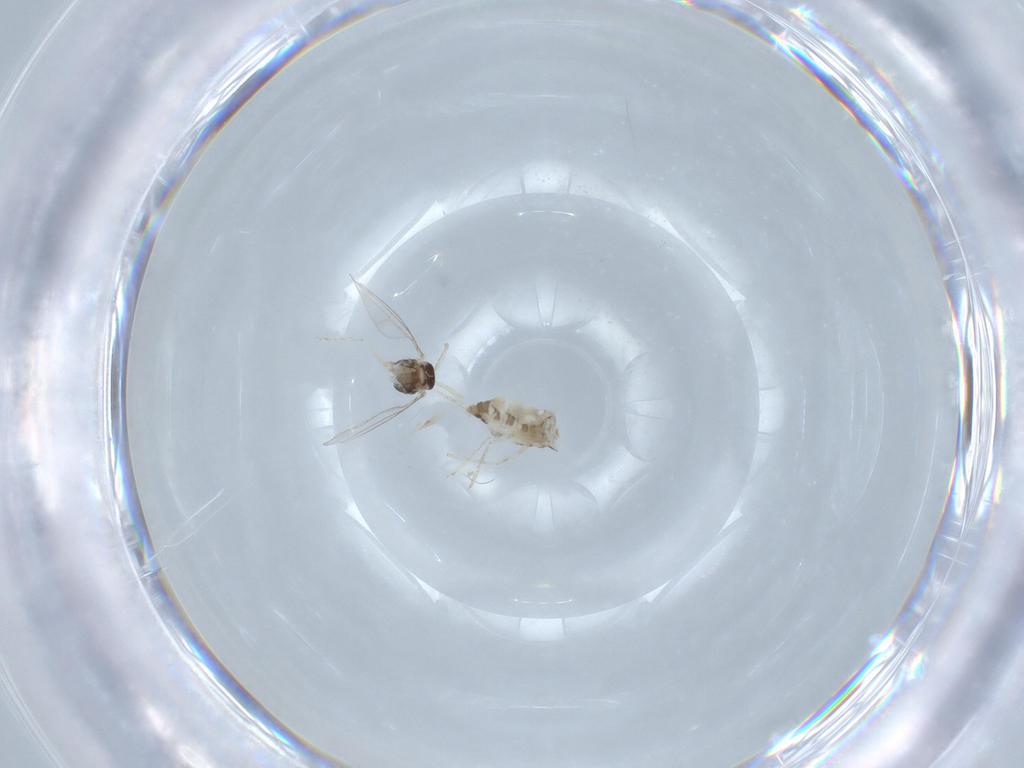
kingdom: Animalia
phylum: Arthropoda
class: Insecta
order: Diptera
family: Cecidomyiidae
